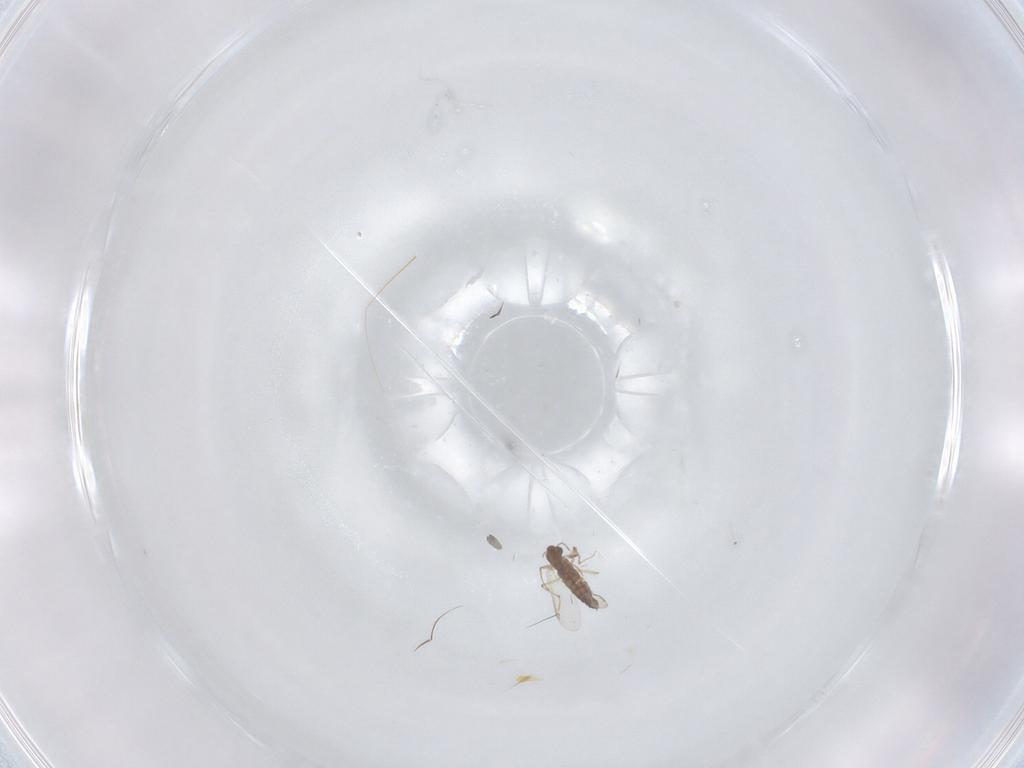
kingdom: Animalia
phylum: Arthropoda
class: Insecta
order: Diptera
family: Chironomidae
